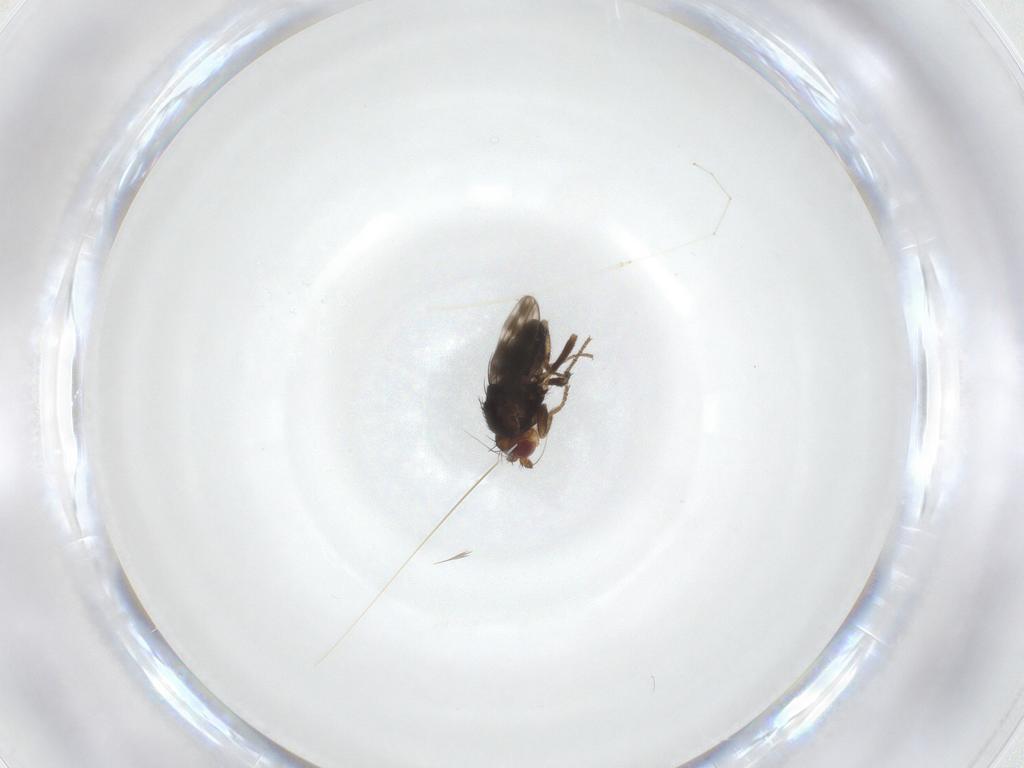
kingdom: Animalia
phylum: Arthropoda
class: Insecta
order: Diptera
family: Sphaeroceridae
